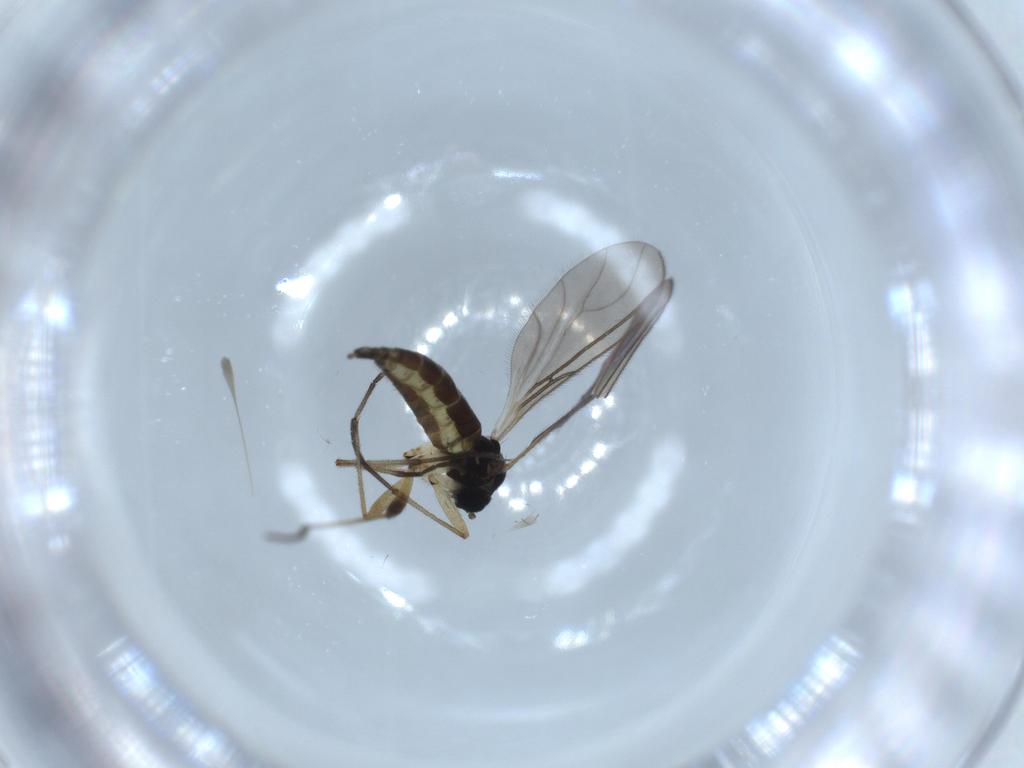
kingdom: Animalia
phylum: Arthropoda
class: Insecta
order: Diptera
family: Sciaridae
